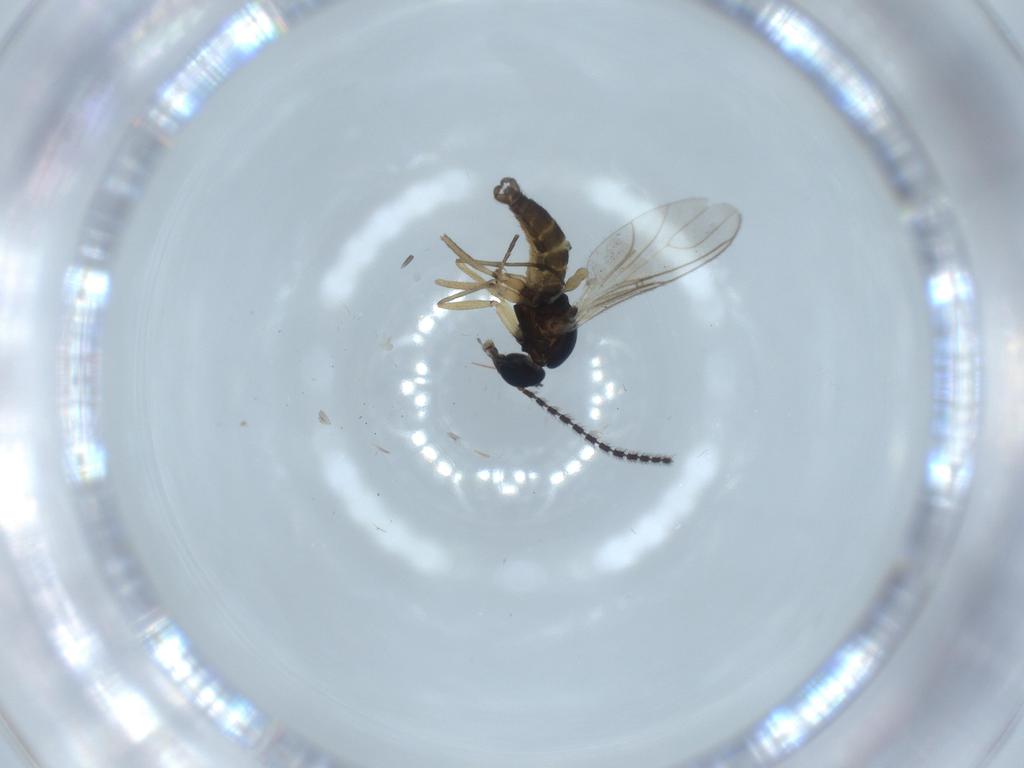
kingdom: Animalia
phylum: Arthropoda
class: Insecta
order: Diptera
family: Sciaridae
